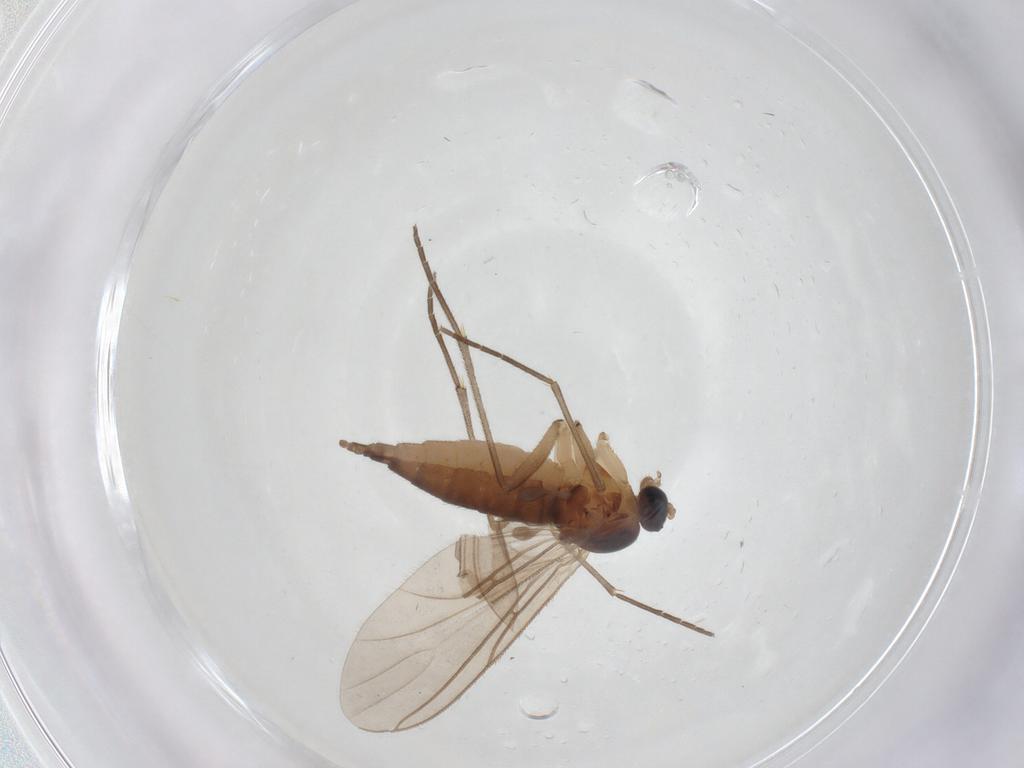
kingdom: Animalia
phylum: Arthropoda
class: Insecta
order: Diptera
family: Sciaridae
